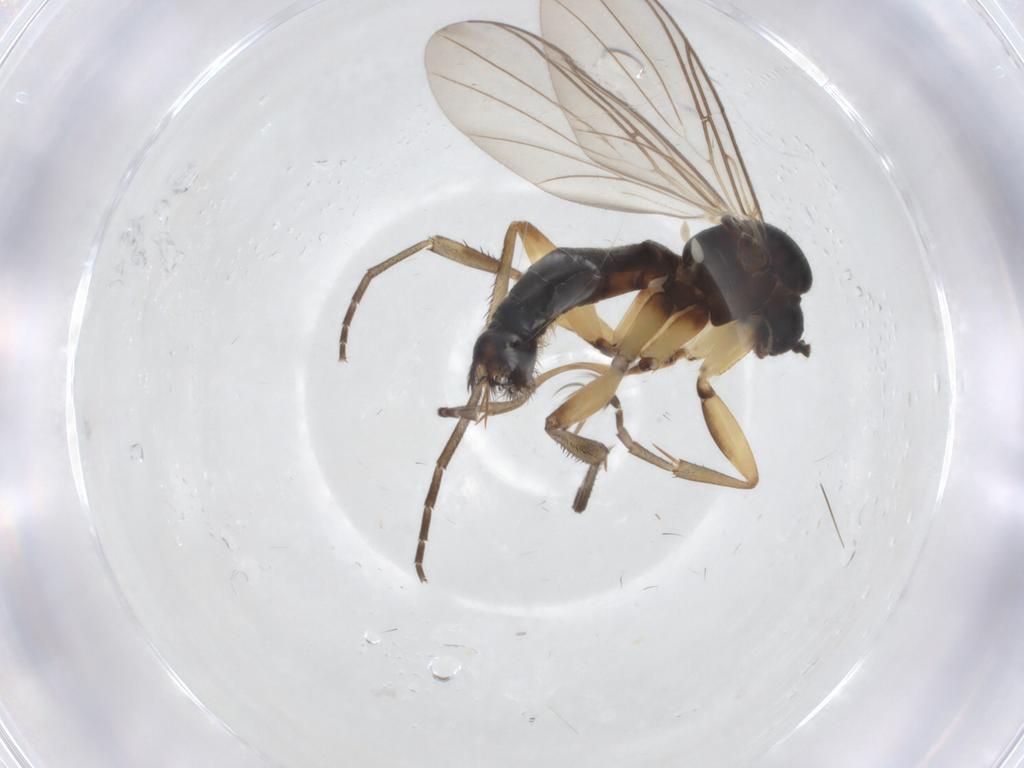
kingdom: Animalia
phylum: Arthropoda
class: Insecta
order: Diptera
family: Mycetophilidae
